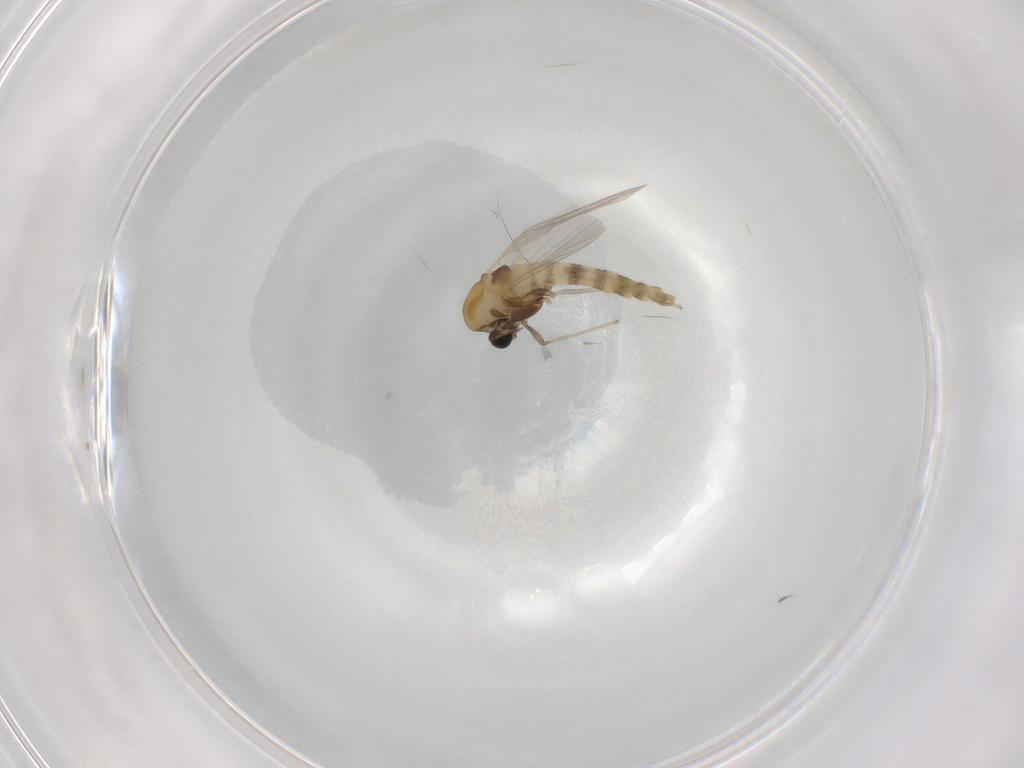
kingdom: Animalia
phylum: Arthropoda
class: Insecta
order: Diptera
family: Chironomidae
